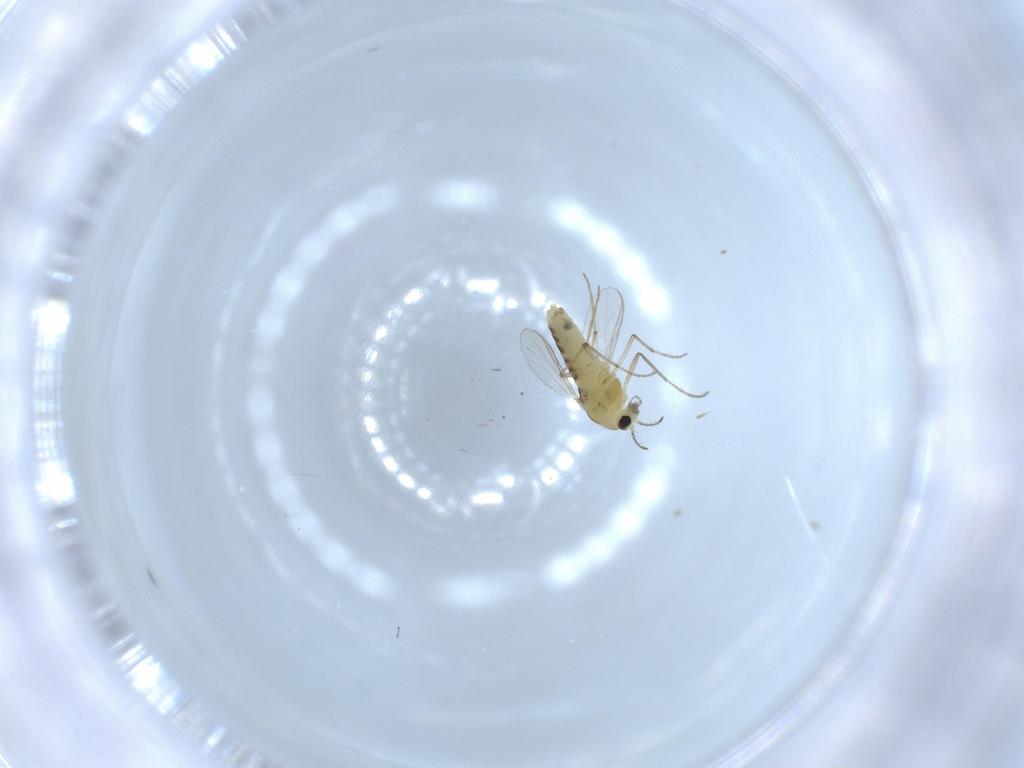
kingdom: Animalia
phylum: Arthropoda
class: Insecta
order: Diptera
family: Chironomidae
